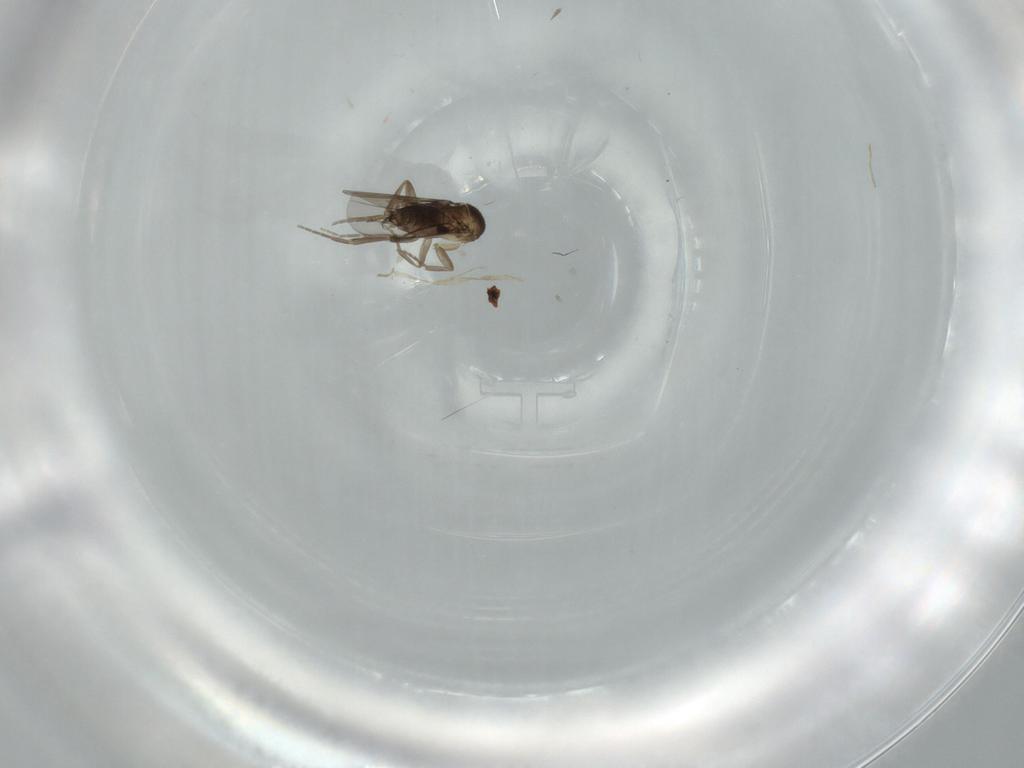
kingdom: Animalia
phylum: Arthropoda
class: Insecta
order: Diptera
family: Phoridae
